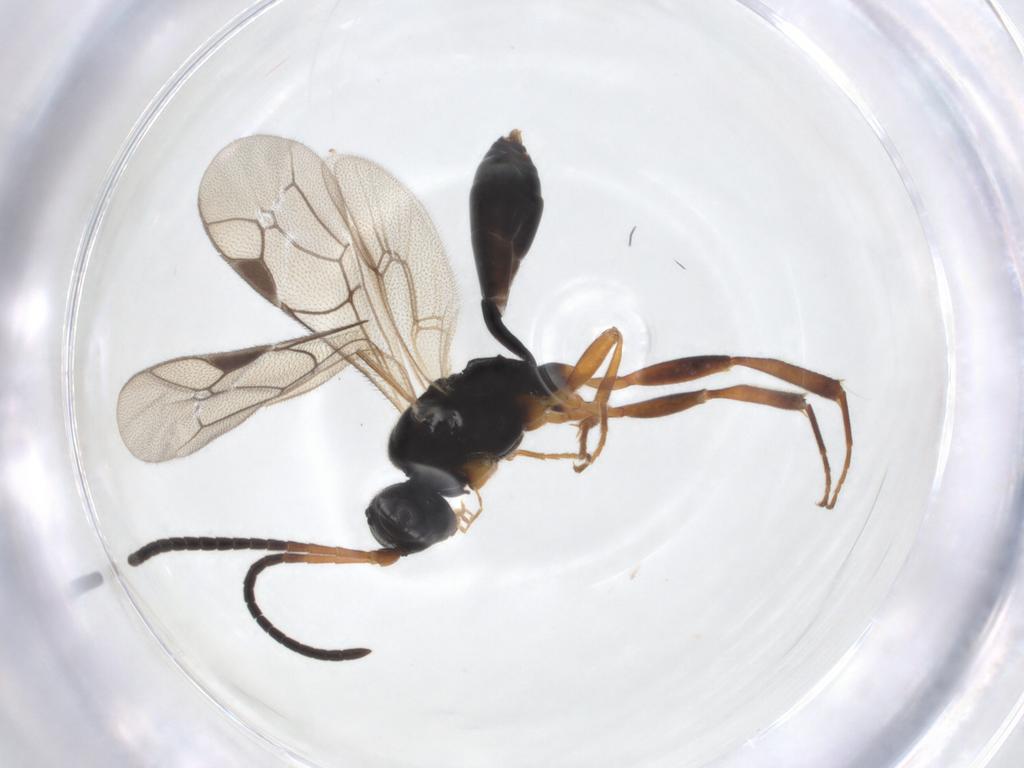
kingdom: Animalia
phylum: Arthropoda
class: Insecta
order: Hymenoptera
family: Ichneumonidae
